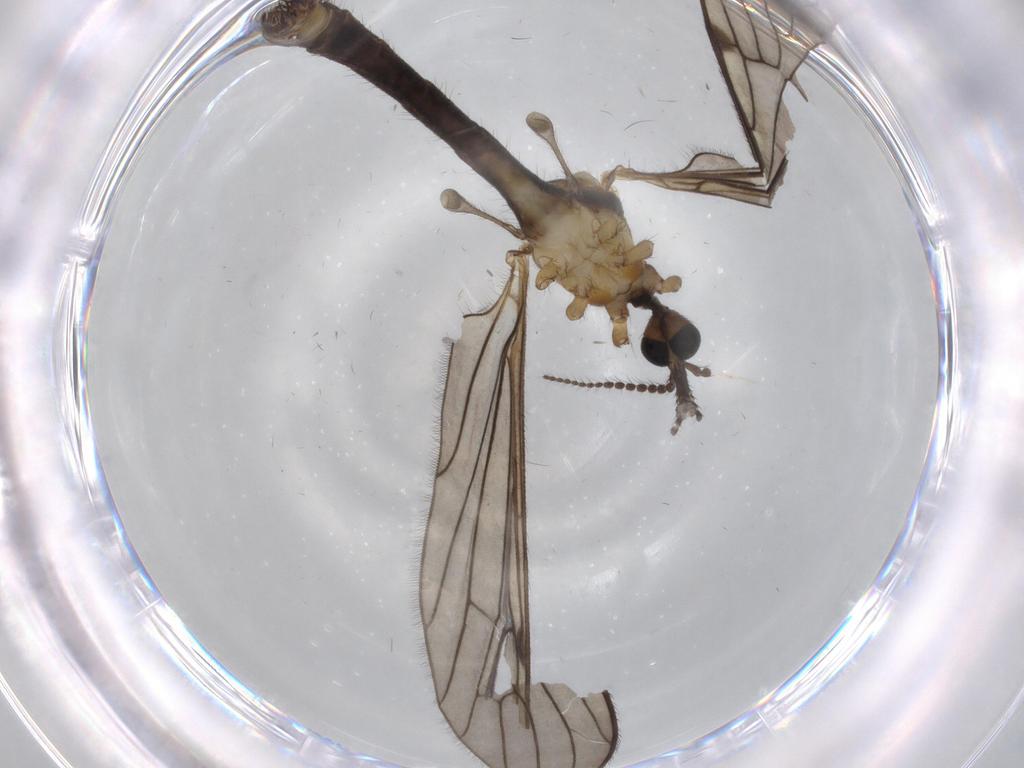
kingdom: Animalia
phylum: Arthropoda
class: Insecta
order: Diptera
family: Limoniidae
